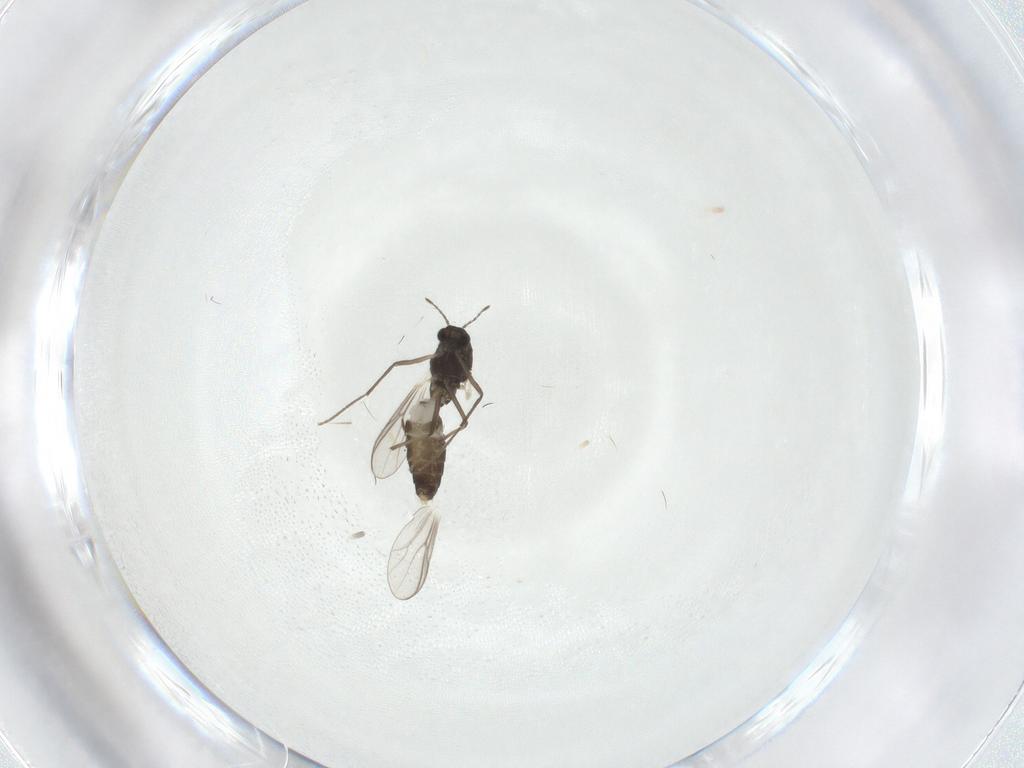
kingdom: Animalia
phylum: Arthropoda
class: Insecta
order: Diptera
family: Chironomidae
